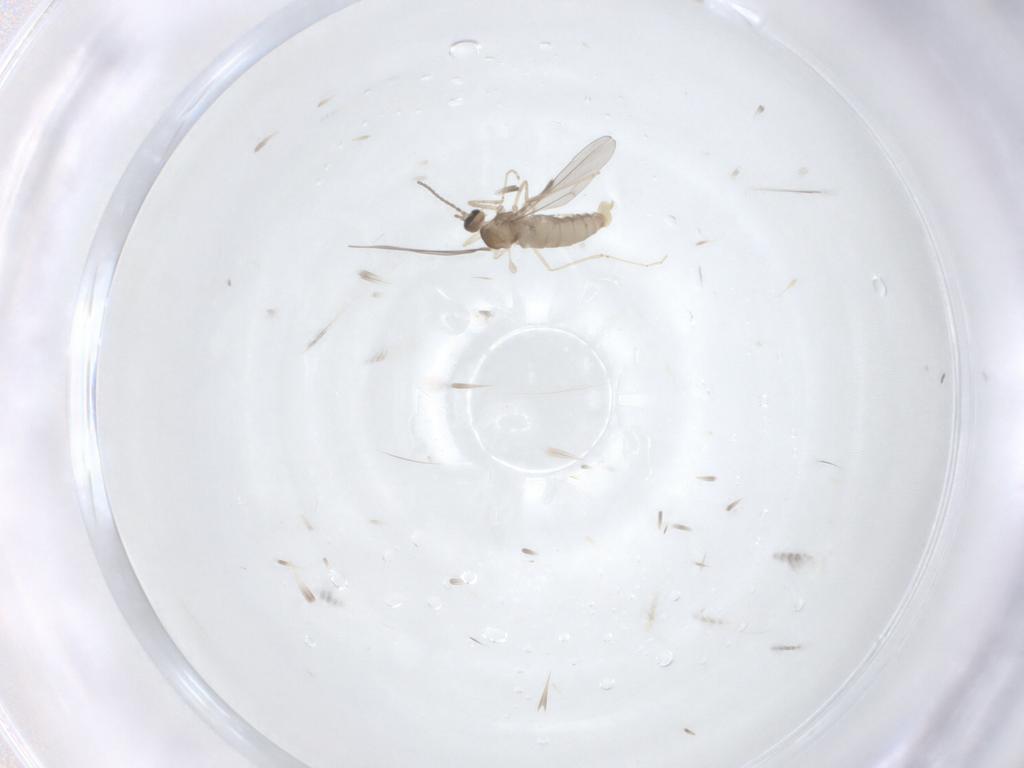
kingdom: Animalia
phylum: Arthropoda
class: Insecta
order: Diptera
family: Cecidomyiidae
